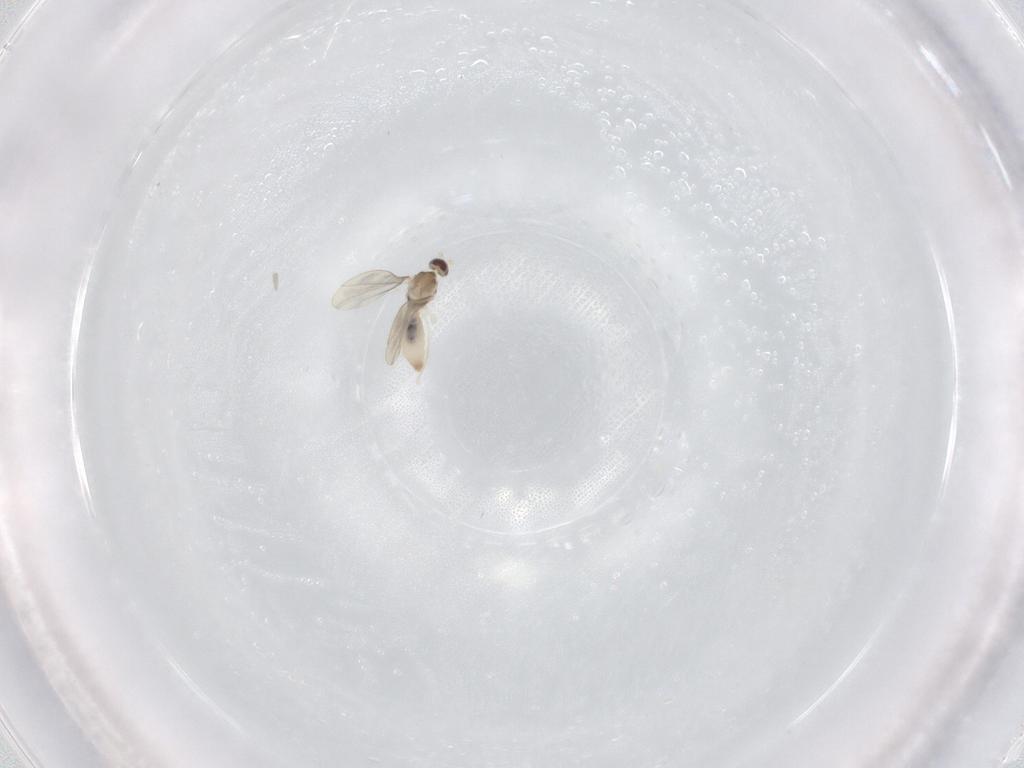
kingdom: Animalia
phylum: Arthropoda
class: Insecta
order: Diptera
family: Cecidomyiidae
